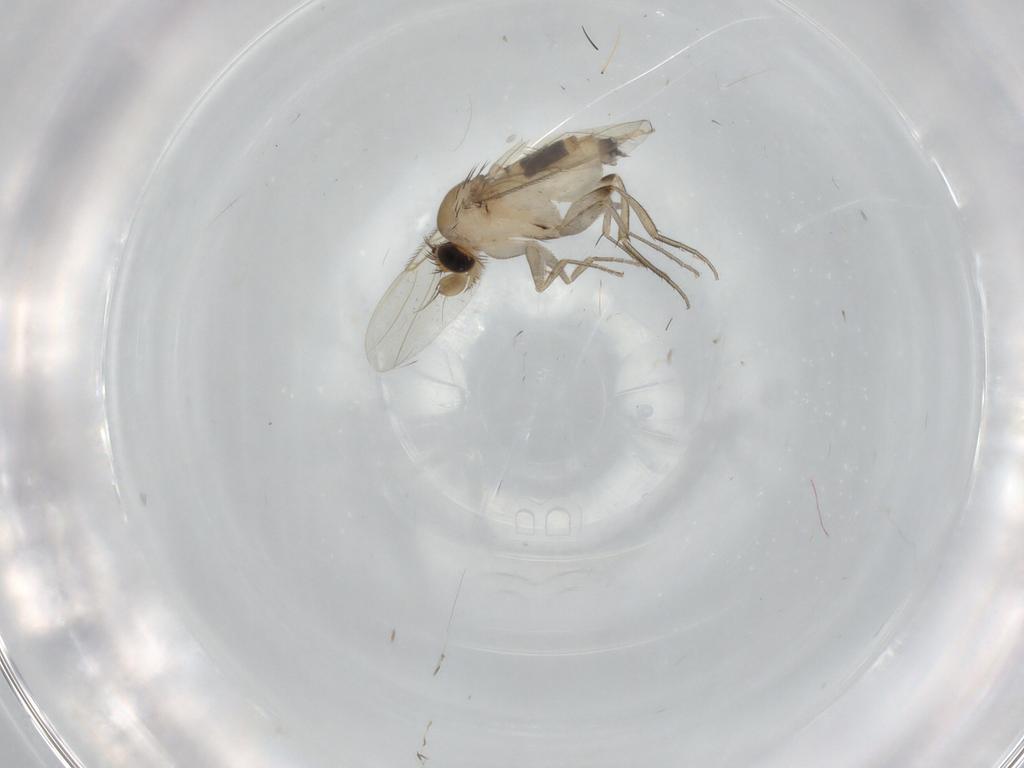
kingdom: Animalia
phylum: Arthropoda
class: Insecta
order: Diptera
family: Phoridae
